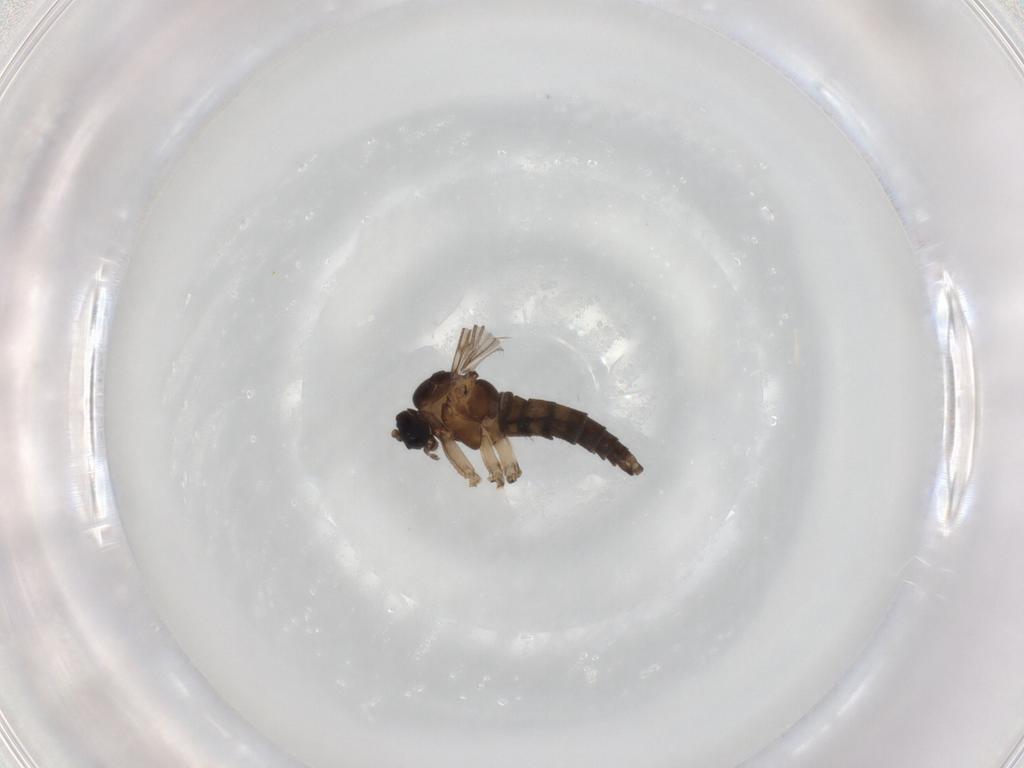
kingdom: Animalia
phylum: Arthropoda
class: Insecta
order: Diptera
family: Sciaridae
